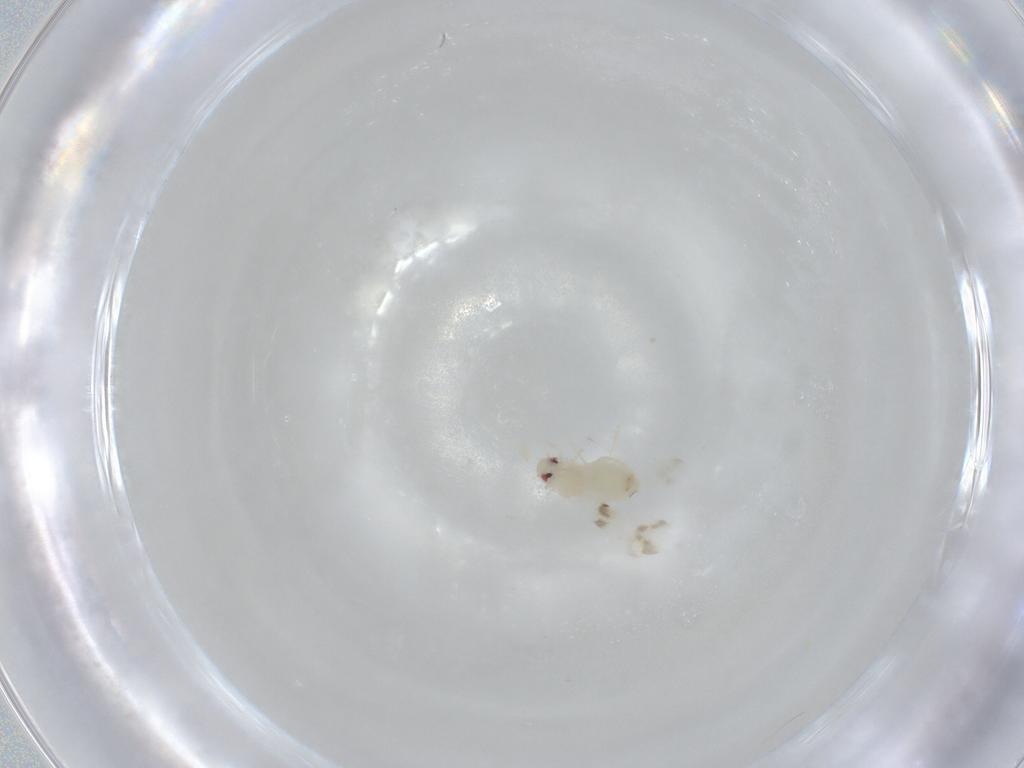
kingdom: Animalia
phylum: Arthropoda
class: Insecta
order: Hemiptera
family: Aleyrodidae
